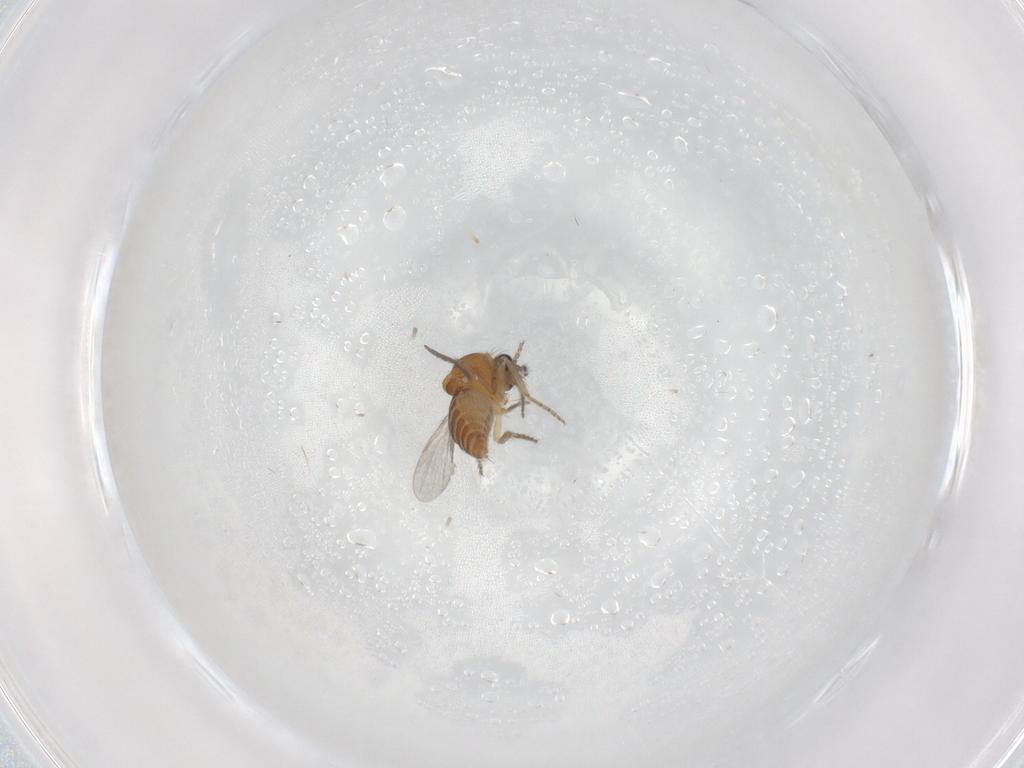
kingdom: Animalia
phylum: Arthropoda
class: Insecta
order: Diptera
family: Ceratopogonidae
